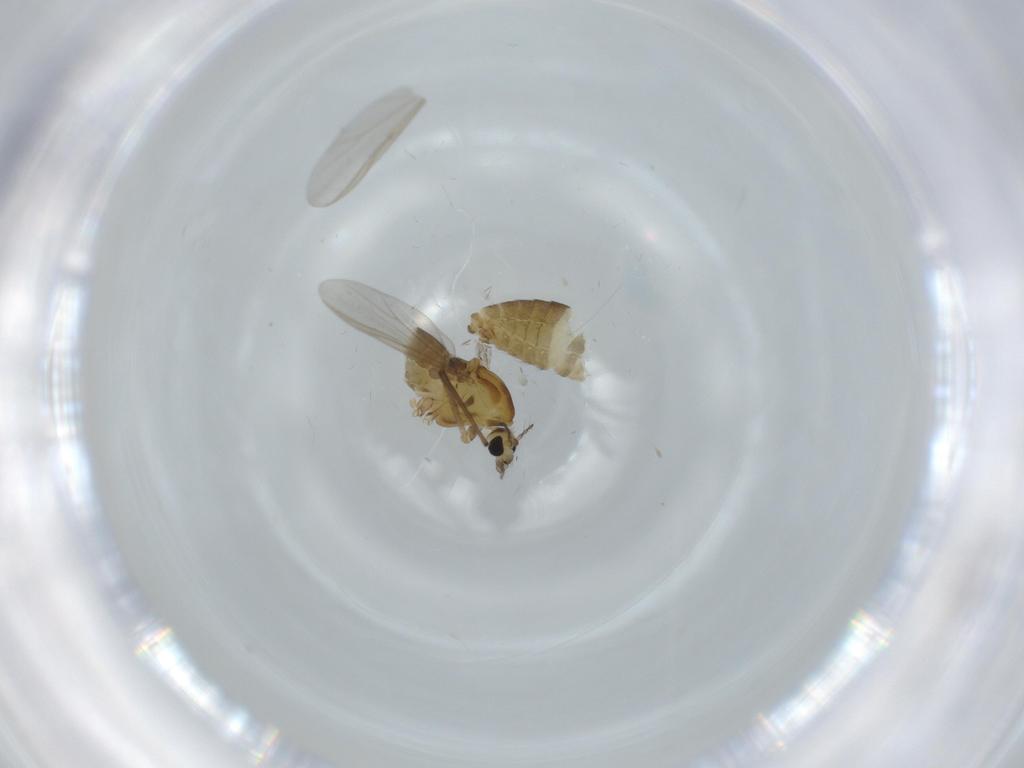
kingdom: Animalia
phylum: Arthropoda
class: Insecta
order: Diptera
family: Chironomidae
